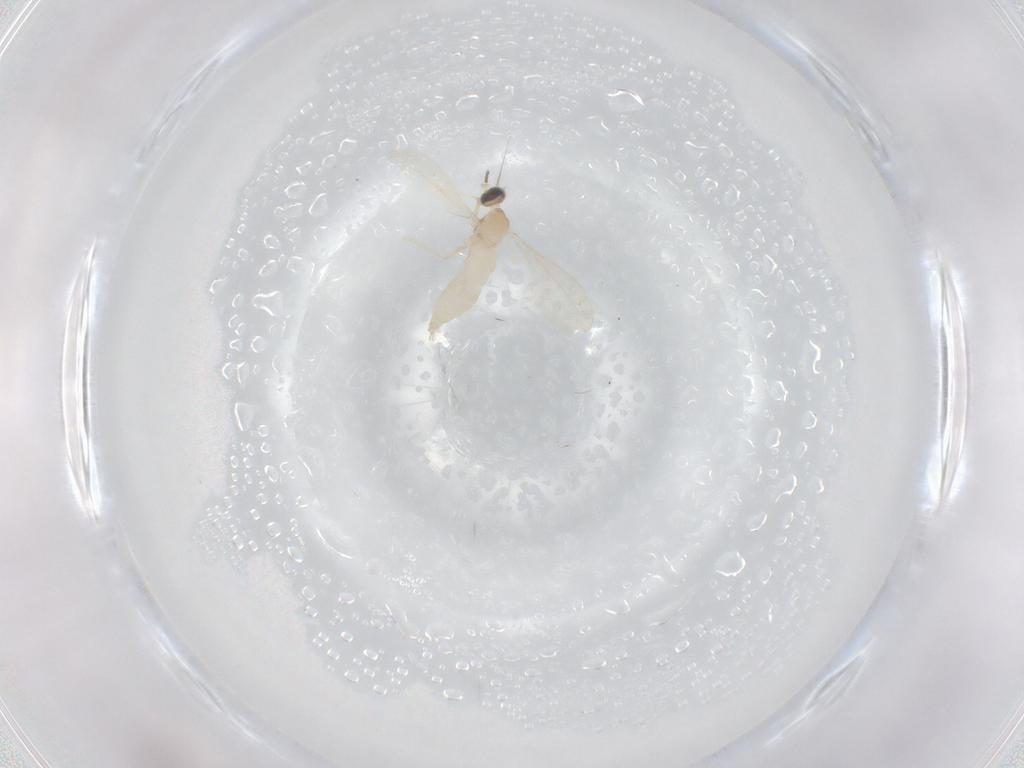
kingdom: Animalia
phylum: Arthropoda
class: Insecta
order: Diptera
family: Cecidomyiidae
